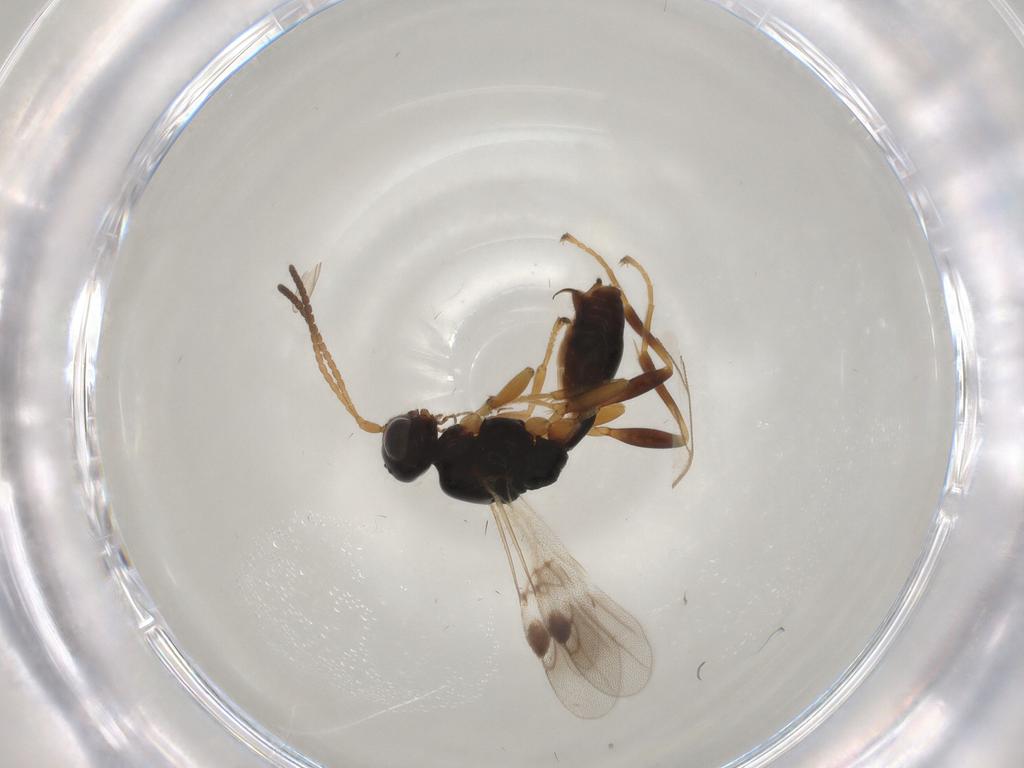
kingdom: Animalia
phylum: Arthropoda
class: Insecta
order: Hymenoptera
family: Braconidae
